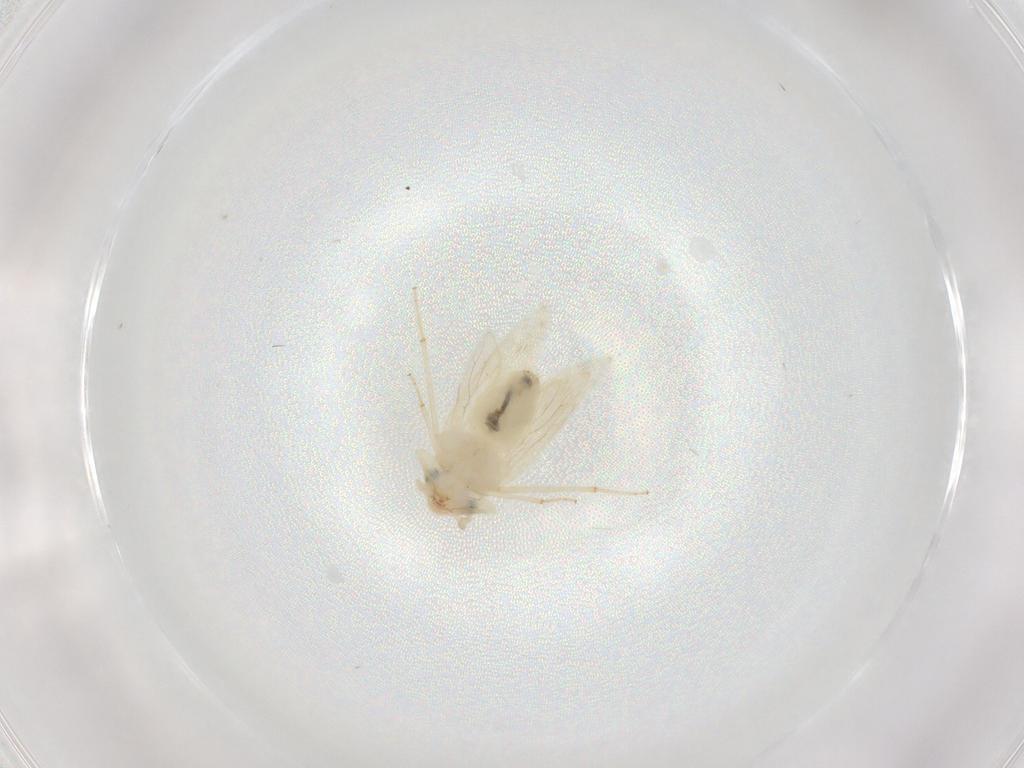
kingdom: Animalia
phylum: Arthropoda
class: Insecta
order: Psocodea
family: Lepidopsocidae
